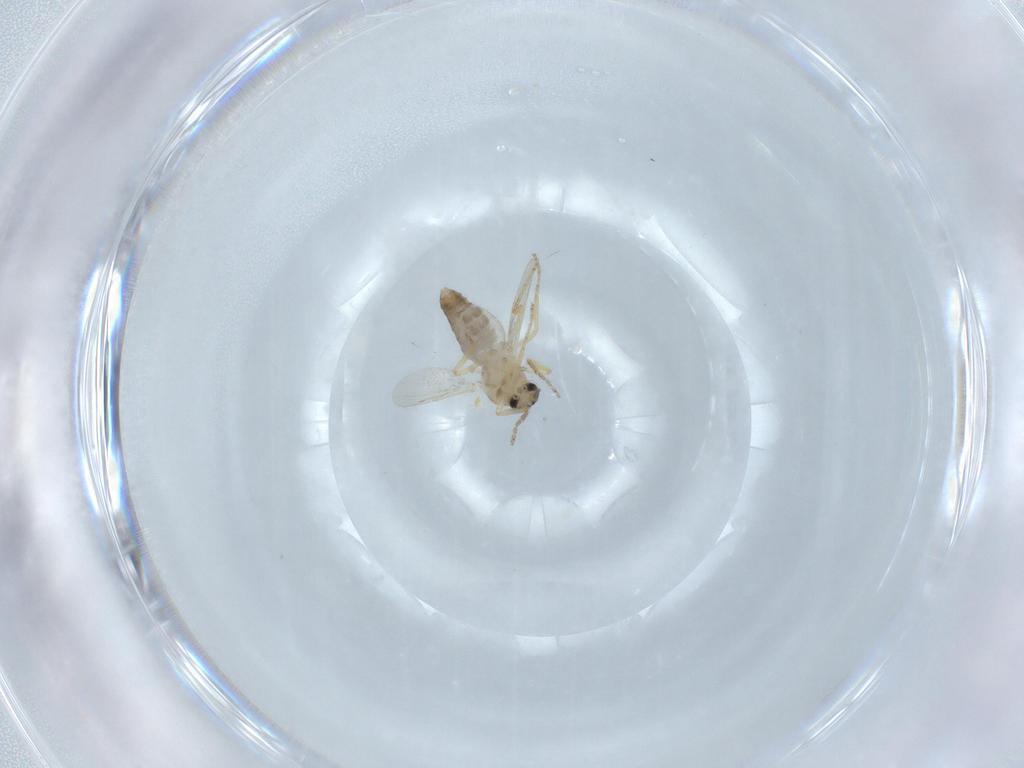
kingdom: Animalia
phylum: Arthropoda
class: Insecta
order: Diptera
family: Ceratopogonidae
